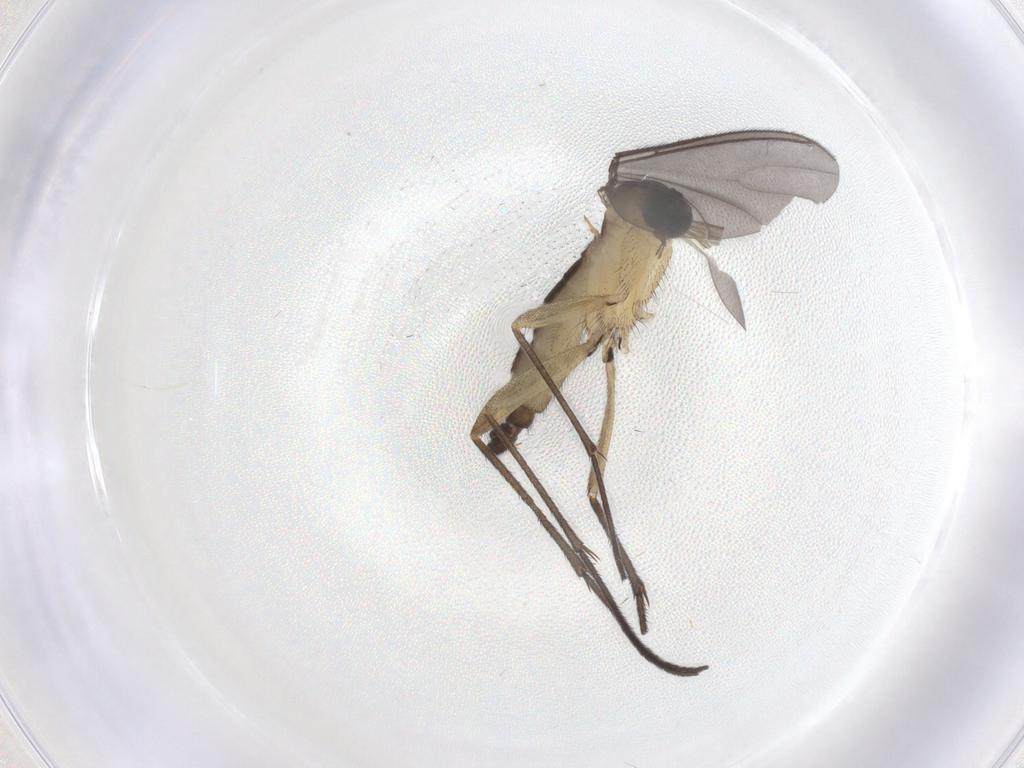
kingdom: Animalia
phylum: Arthropoda
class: Insecta
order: Diptera
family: Sciaridae
